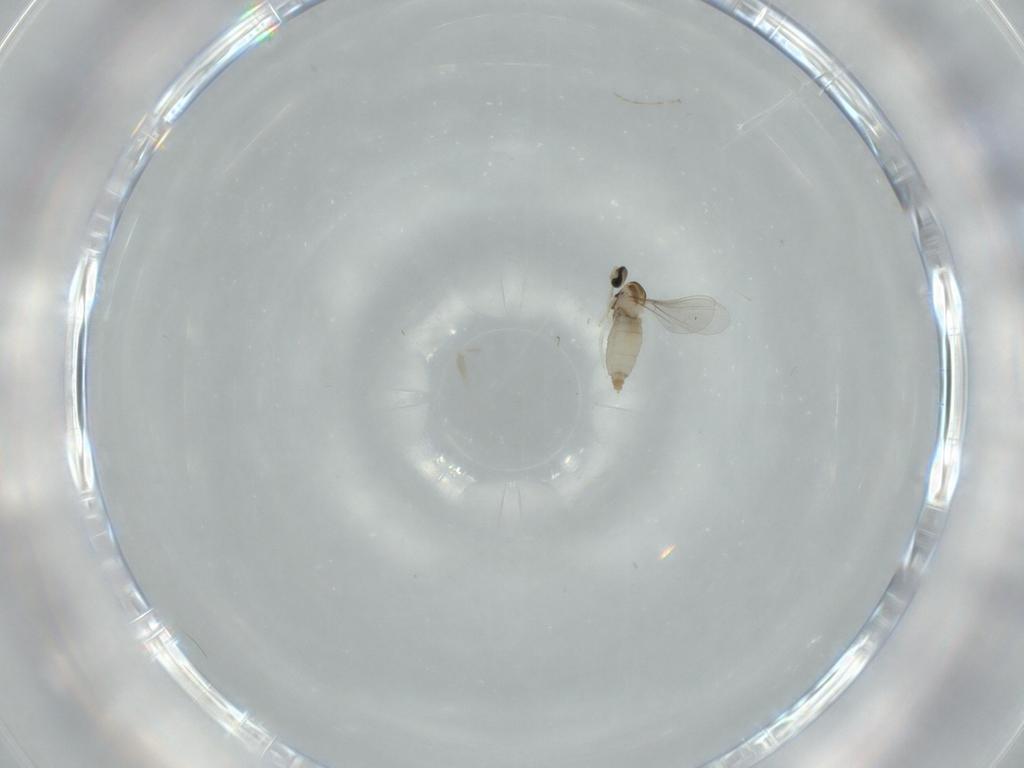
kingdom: Animalia
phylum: Arthropoda
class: Insecta
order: Diptera
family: Cecidomyiidae
